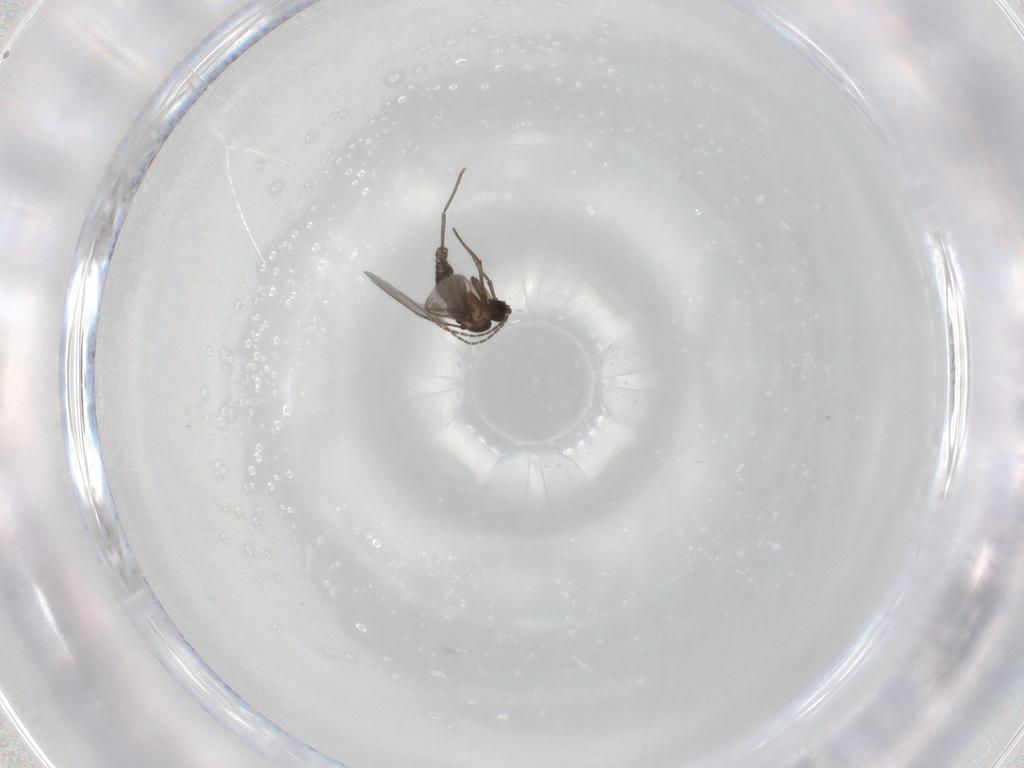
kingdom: Animalia
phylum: Arthropoda
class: Insecta
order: Diptera
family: Sciaridae
